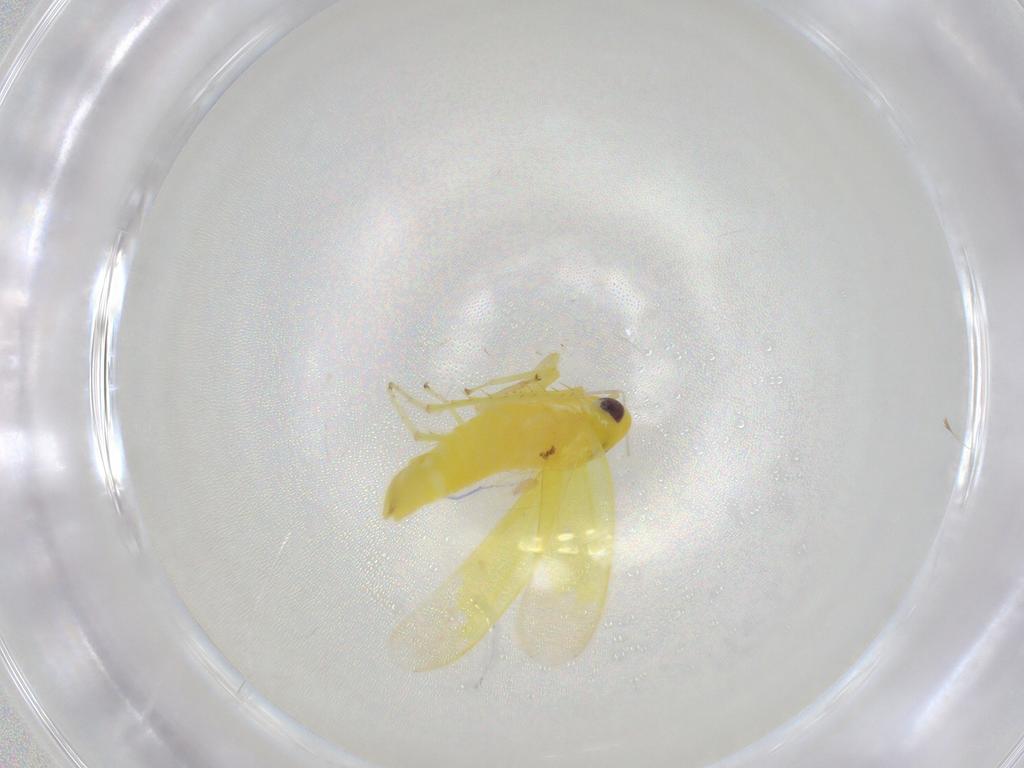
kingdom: Animalia
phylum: Arthropoda
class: Insecta
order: Hemiptera
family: Cicadellidae
